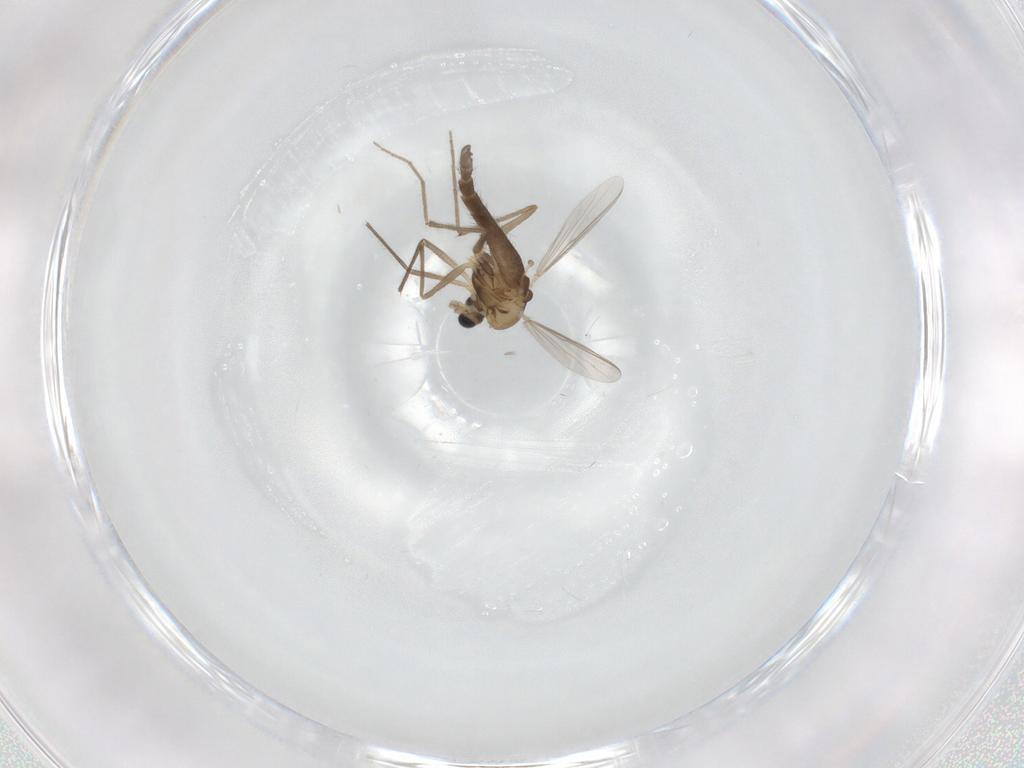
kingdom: Animalia
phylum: Arthropoda
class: Insecta
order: Diptera
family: Chironomidae
